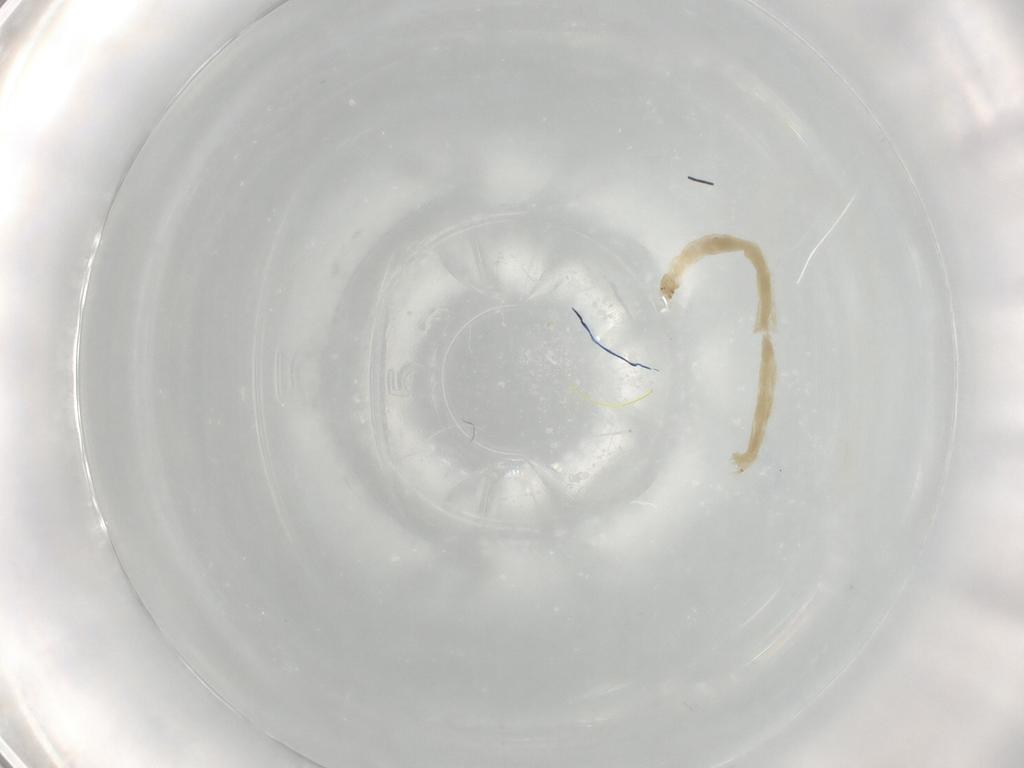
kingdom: Animalia
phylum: Arthropoda
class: Insecta
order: Diptera
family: Chironomidae
